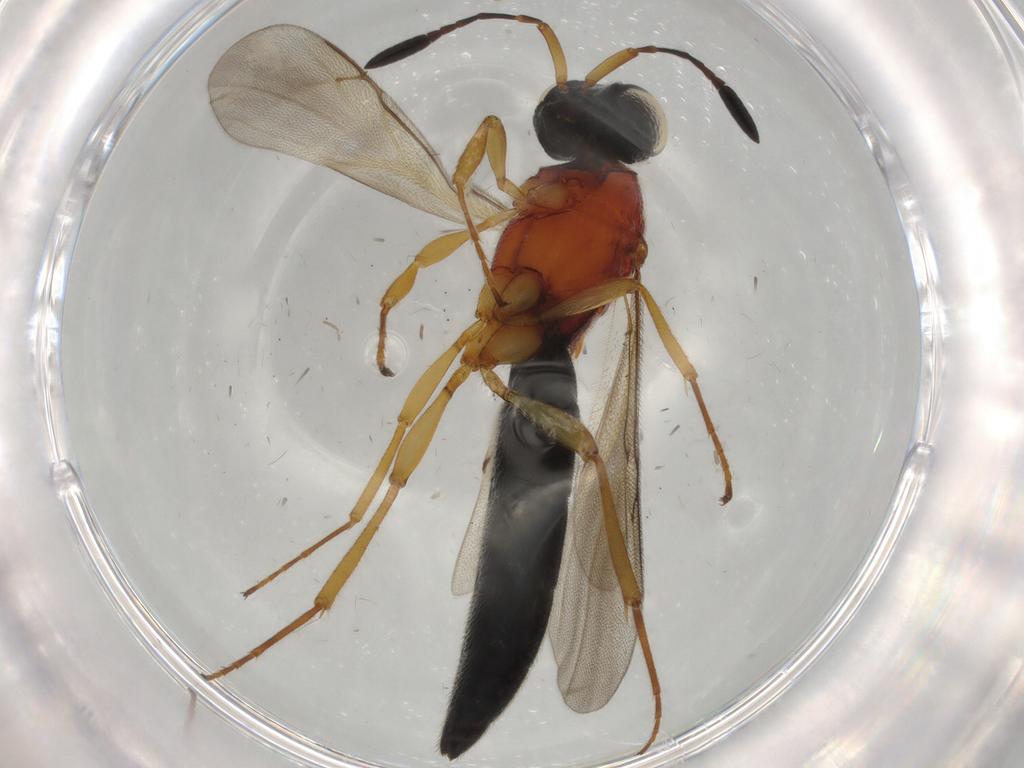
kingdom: Animalia
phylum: Arthropoda
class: Insecta
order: Hymenoptera
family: Scelionidae
